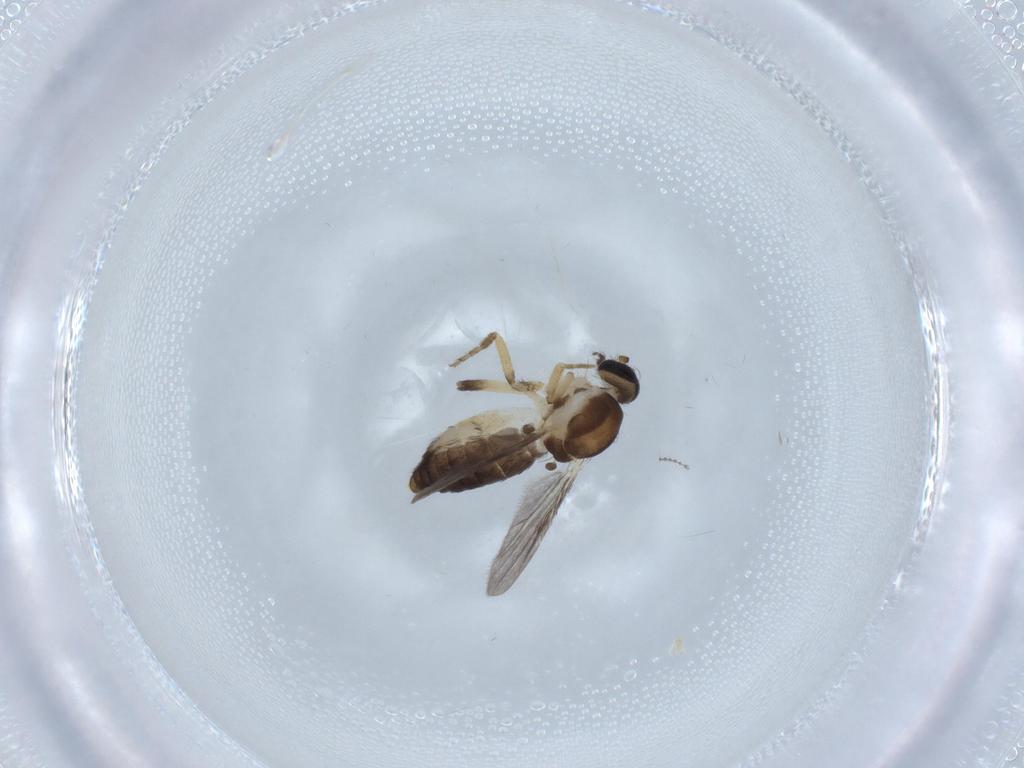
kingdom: Animalia
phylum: Arthropoda
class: Insecta
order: Diptera
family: Ceratopogonidae
